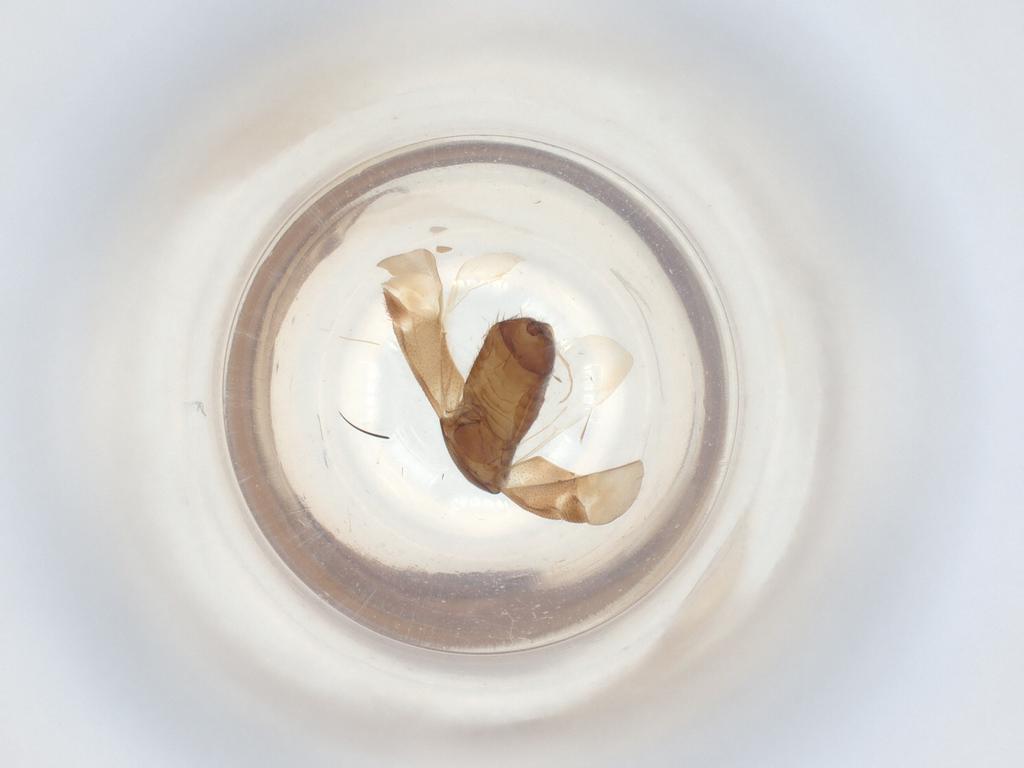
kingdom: Animalia
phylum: Arthropoda
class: Insecta
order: Hemiptera
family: Miridae
